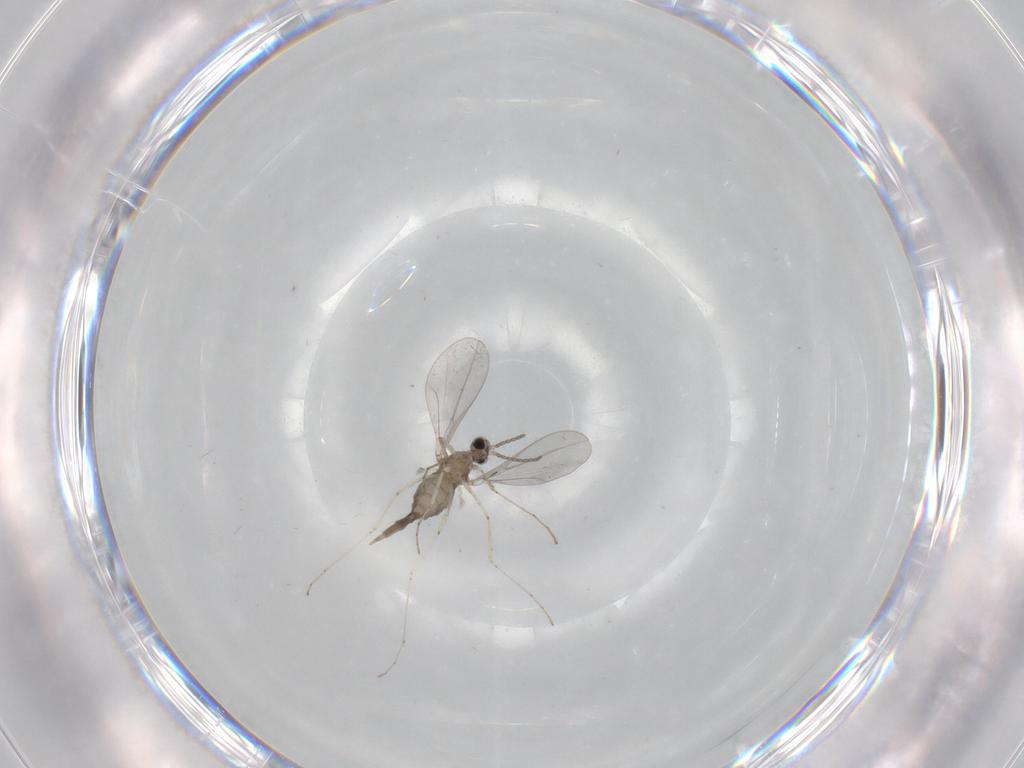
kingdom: Animalia
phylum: Arthropoda
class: Insecta
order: Diptera
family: Cecidomyiidae
